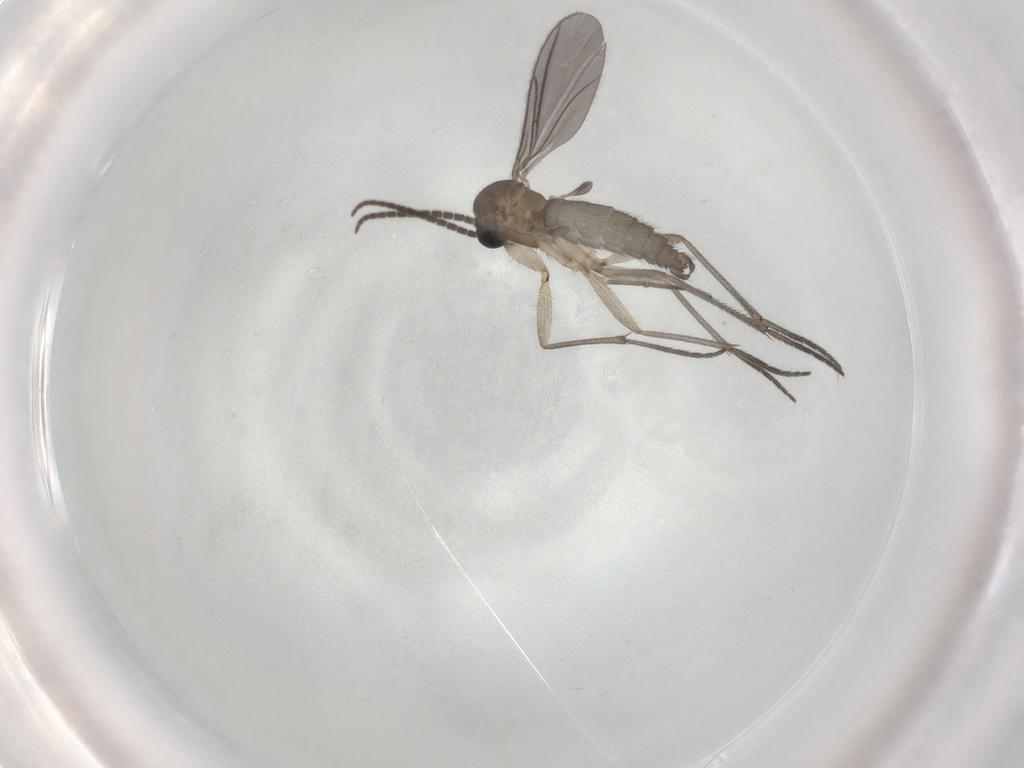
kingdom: Animalia
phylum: Arthropoda
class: Insecta
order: Diptera
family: Sciaridae
